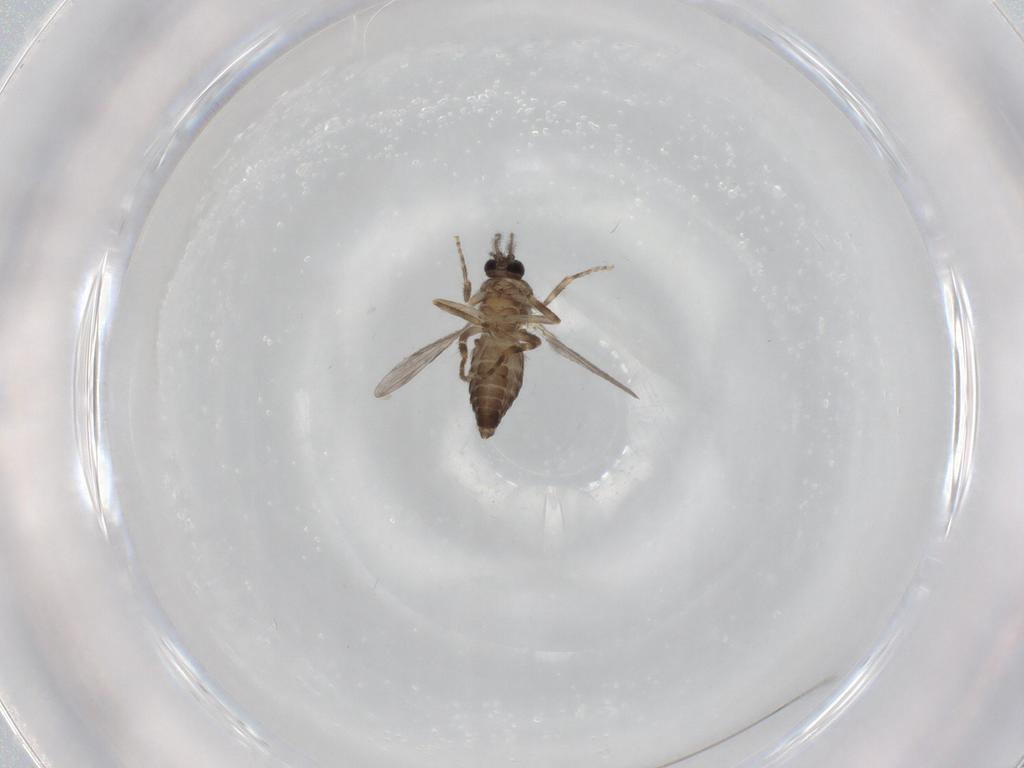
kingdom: Animalia
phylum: Arthropoda
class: Insecta
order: Diptera
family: Ceratopogonidae
